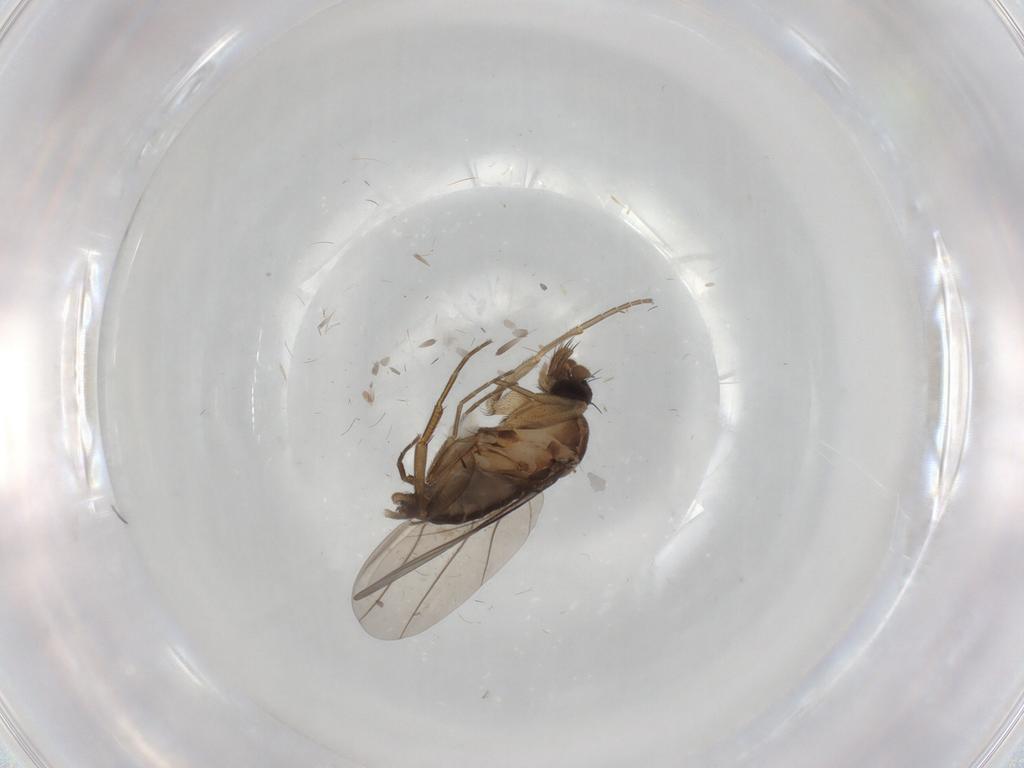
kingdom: Animalia
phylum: Arthropoda
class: Insecta
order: Diptera
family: Phoridae
